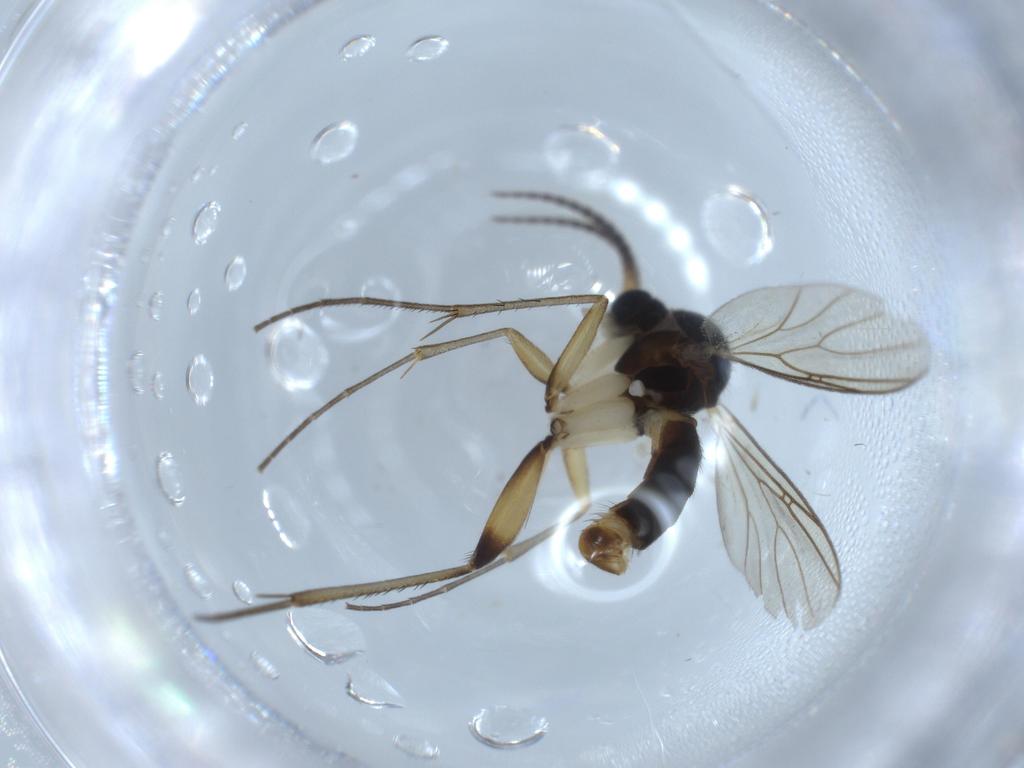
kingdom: Animalia
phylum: Arthropoda
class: Insecta
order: Diptera
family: Mycetophilidae
